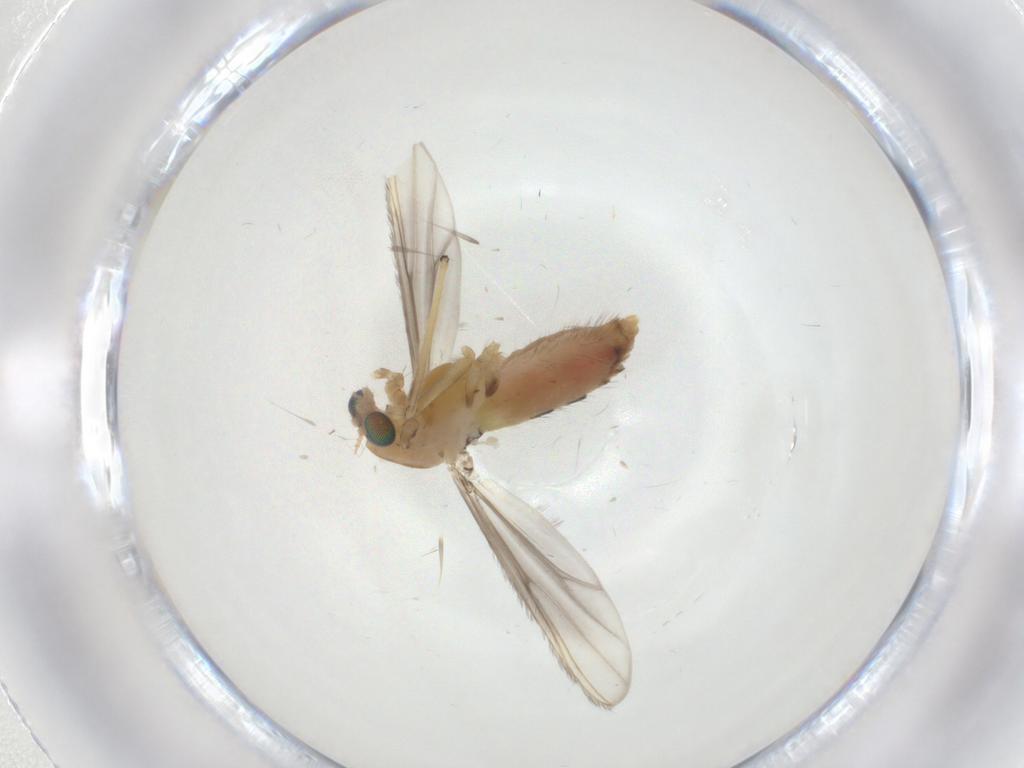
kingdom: Animalia
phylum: Arthropoda
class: Insecta
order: Diptera
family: Chironomidae
